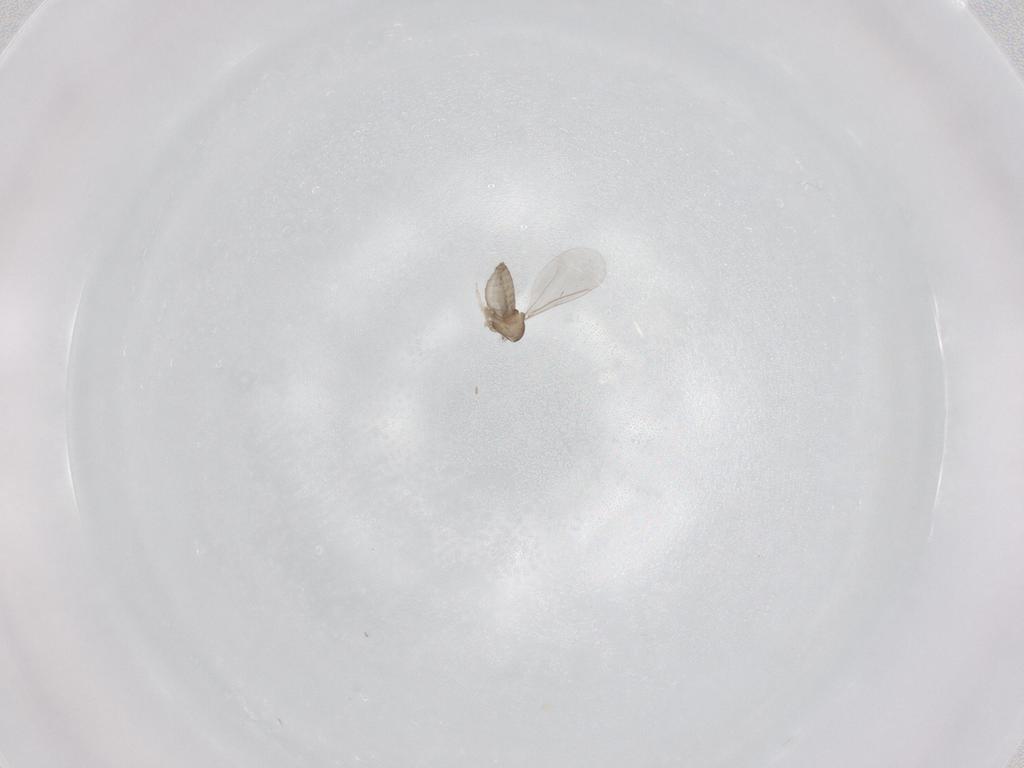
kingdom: Animalia
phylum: Arthropoda
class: Insecta
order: Diptera
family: Cecidomyiidae
